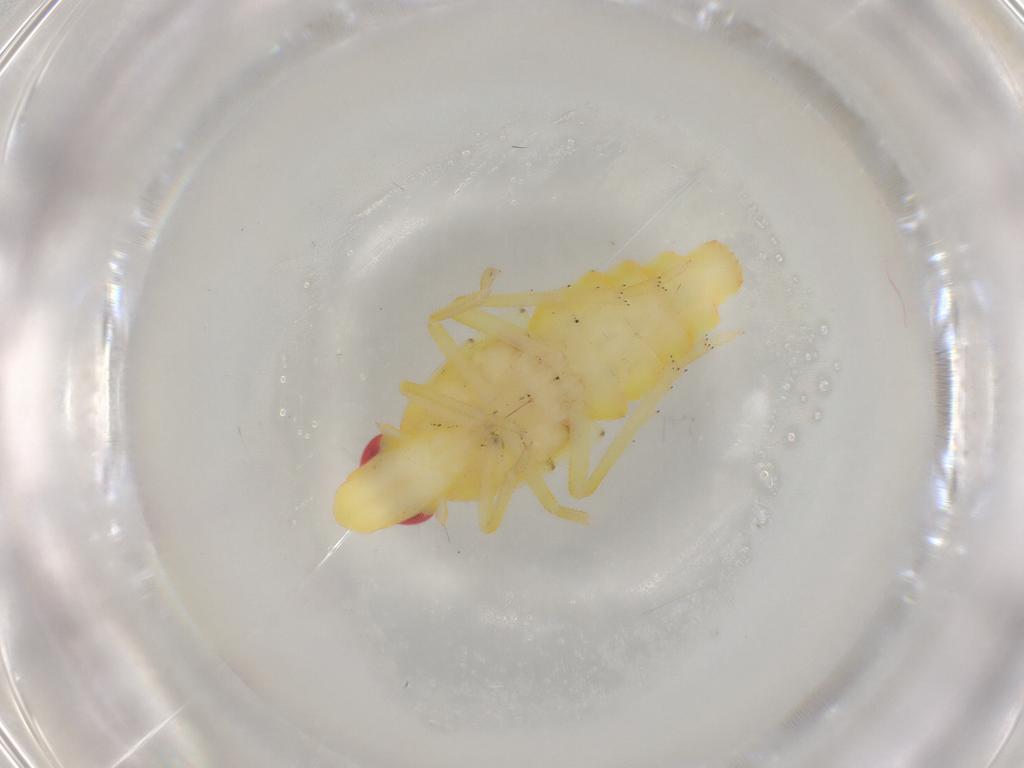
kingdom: Animalia
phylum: Arthropoda
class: Insecta
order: Hemiptera
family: Tropiduchidae
